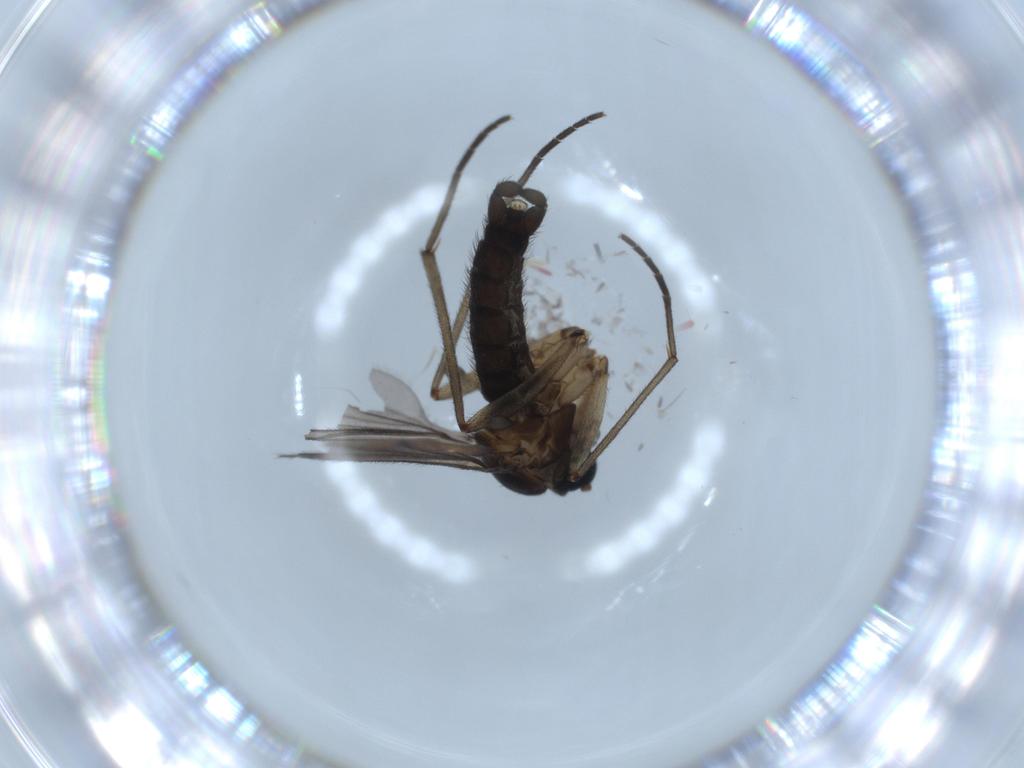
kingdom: Animalia
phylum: Arthropoda
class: Insecta
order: Diptera
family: Sciaridae
